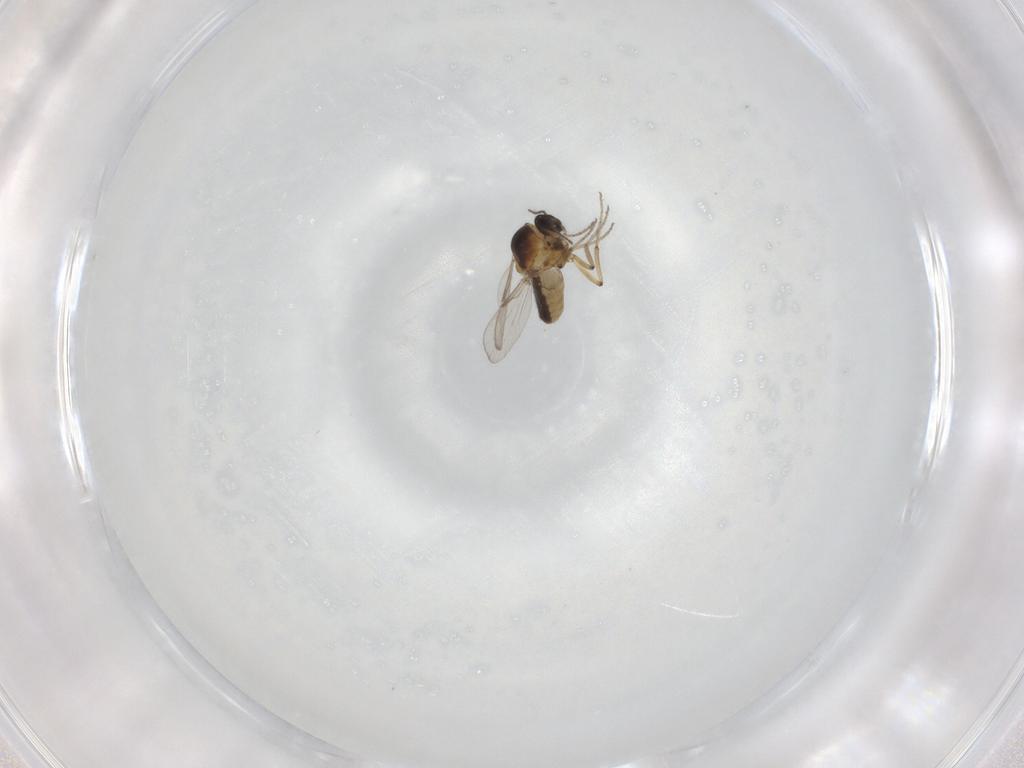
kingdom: Animalia
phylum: Arthropoda
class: Insecta
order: Diptera
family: Ceratopogonidae
